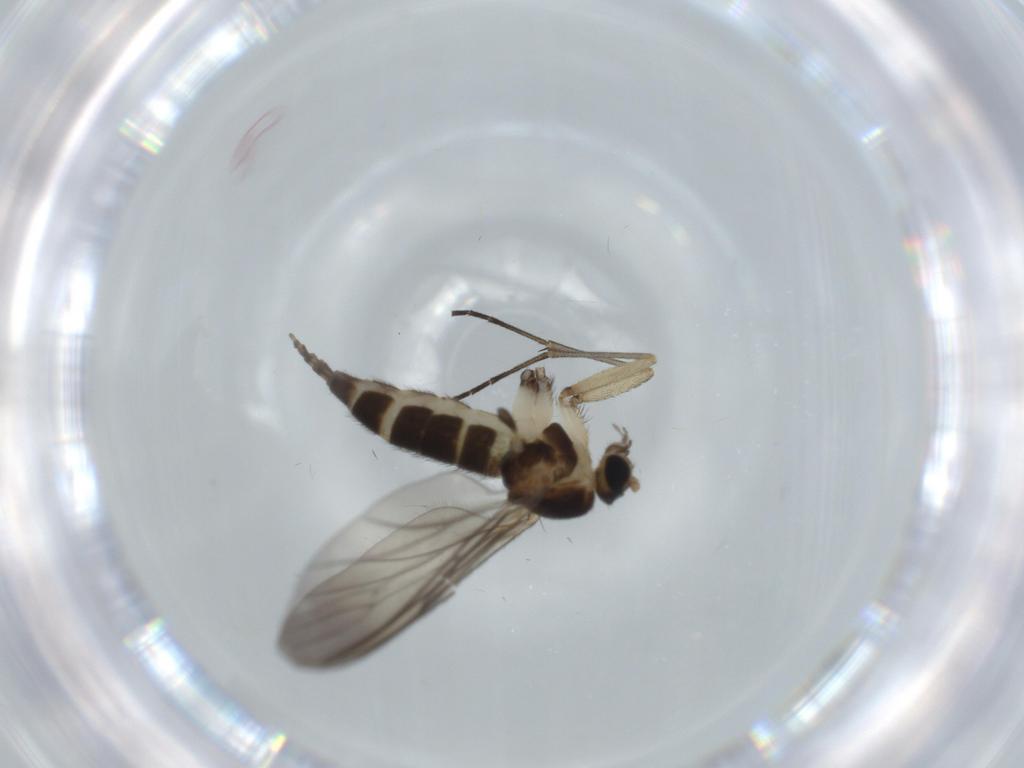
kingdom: Animalia
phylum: Arthropoda
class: Insecta
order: Diptera
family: Sciaridae
